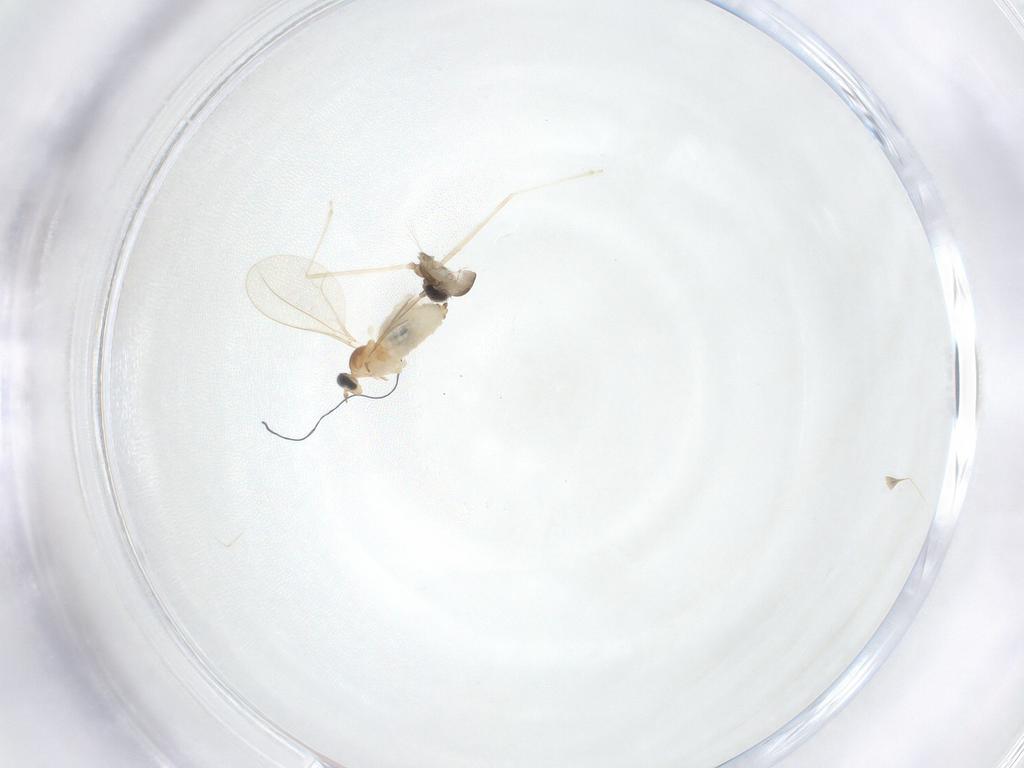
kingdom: Animalia
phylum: Arthropoda
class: Insecta
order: Diptera
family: Cecidomyiidae
